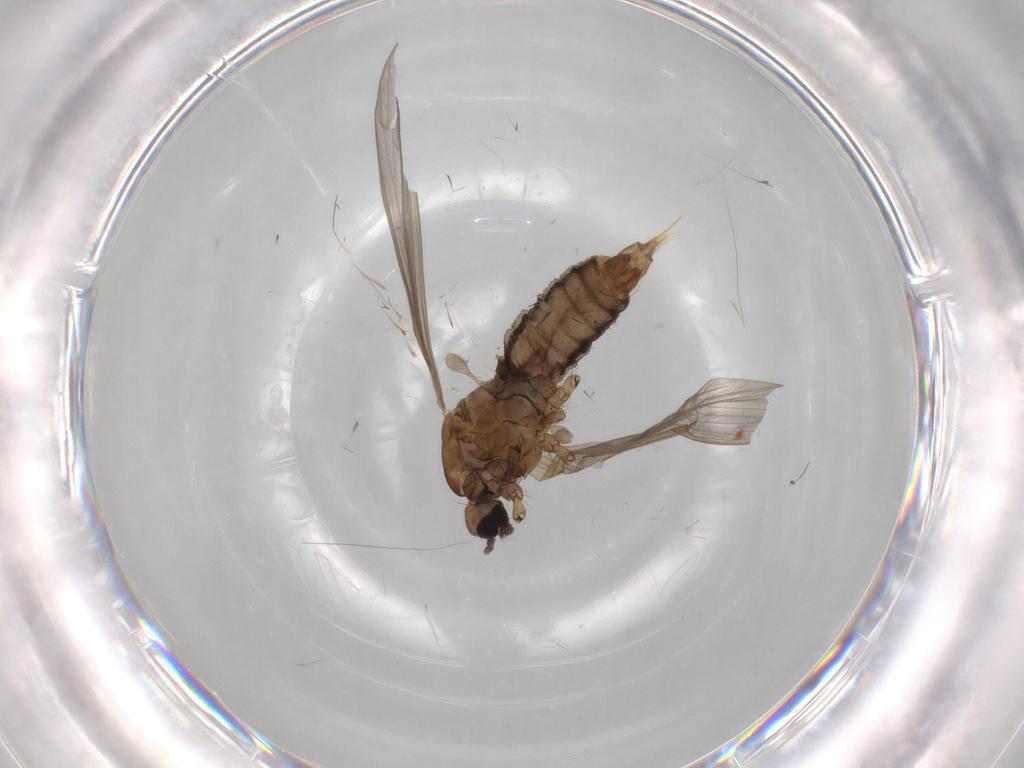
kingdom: Animalia
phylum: Arthropoda
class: Insecta
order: Diptera
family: Limoniidae
